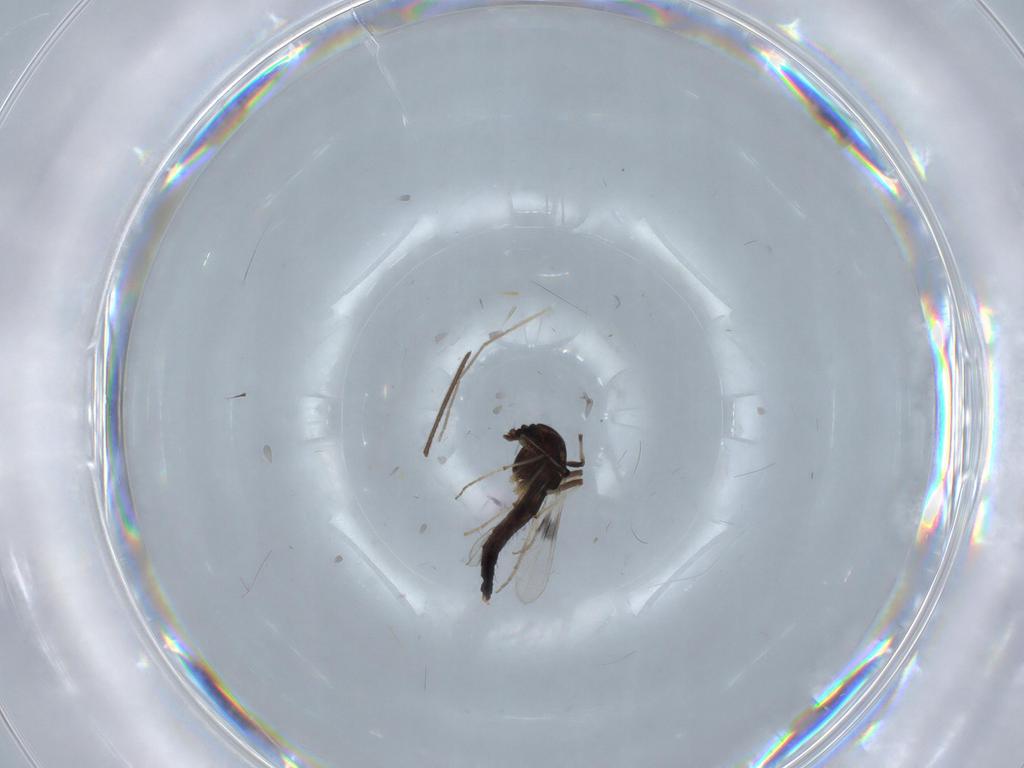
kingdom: Animalia
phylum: Arthropoda
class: Insecta
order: Diptera
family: Chironomidae
